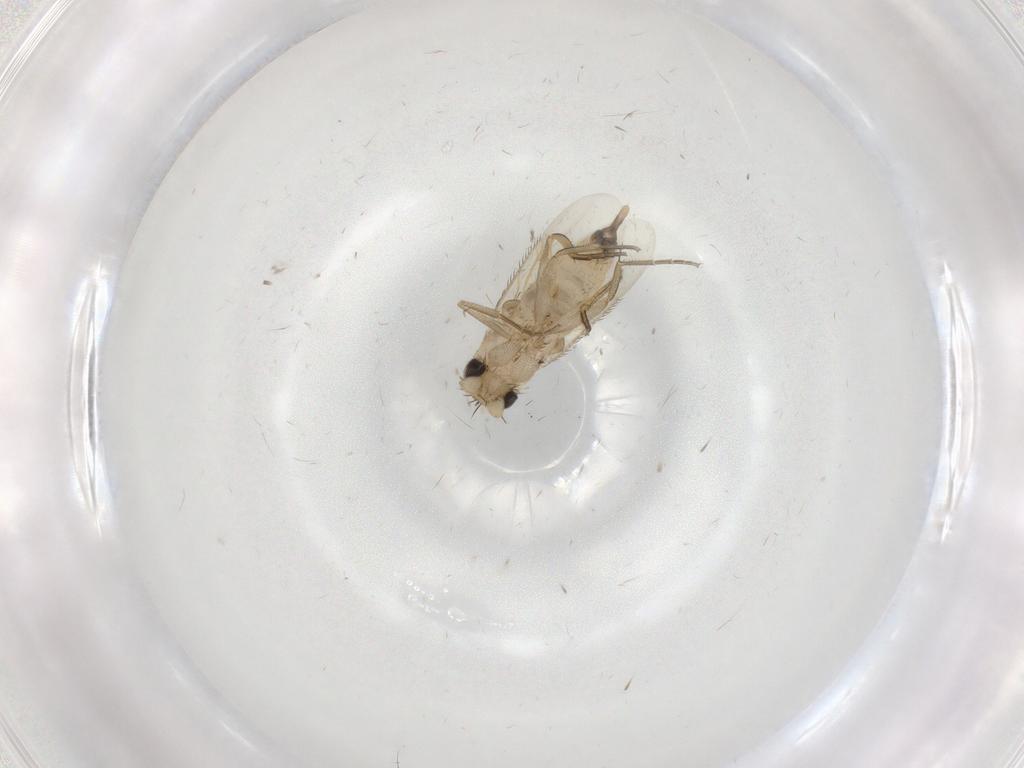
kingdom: Animalia
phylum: Arthropoda
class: Insecta
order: Diptera
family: Phoridae
